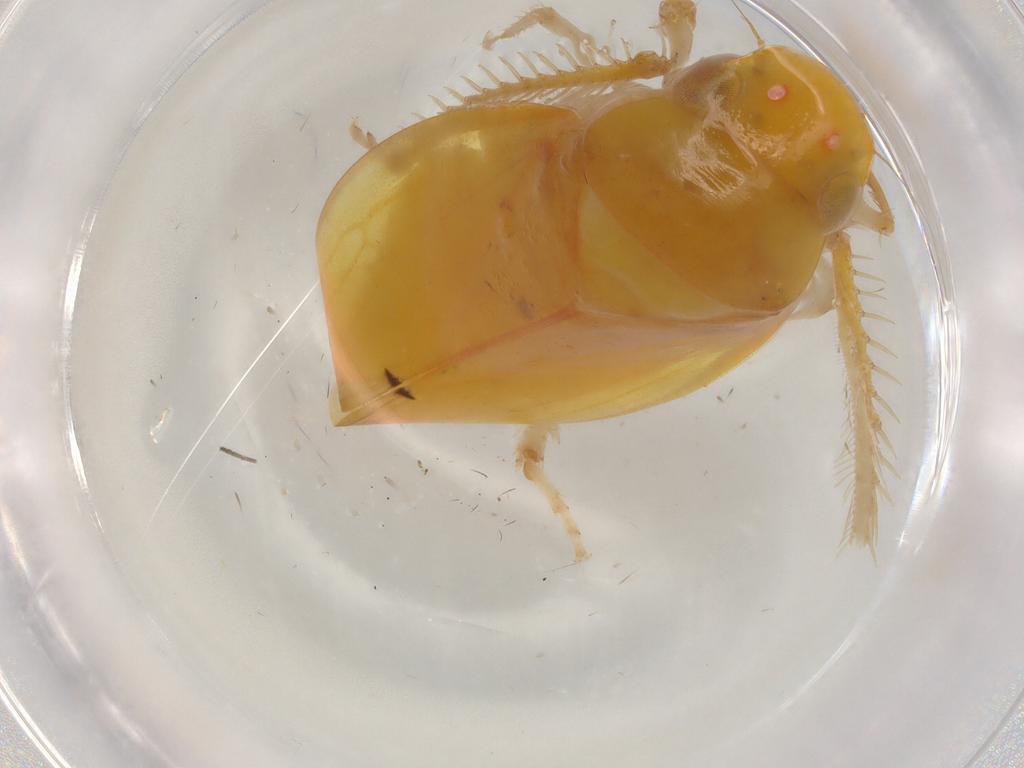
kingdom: Animalia
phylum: Arthropoda
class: Insecta
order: Hemiptera
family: Cicadellidae
